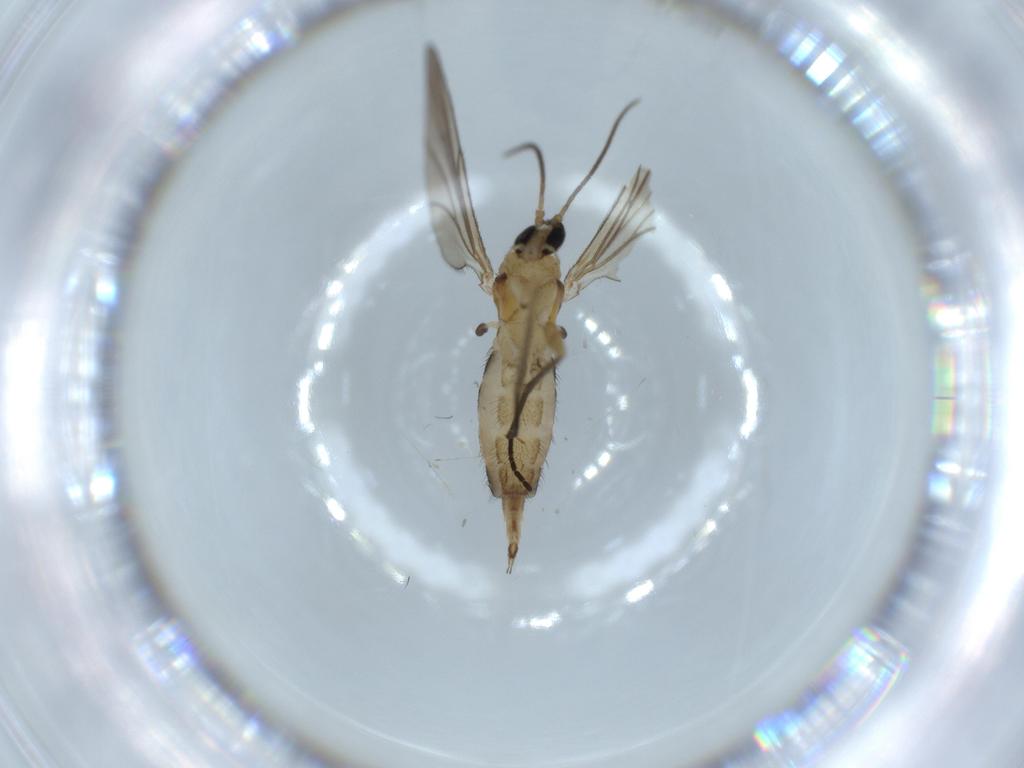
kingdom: Animalia
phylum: Arthropoda
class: Insecta
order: Diptera
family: Cecidomyiidae
